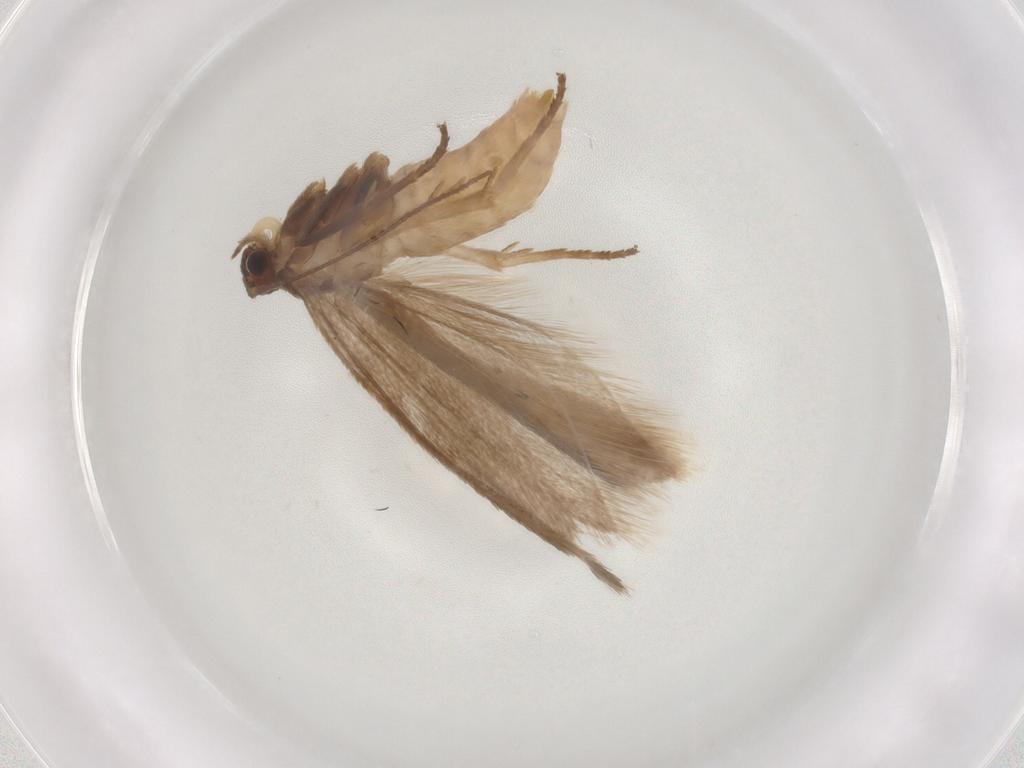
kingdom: Animalia
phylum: Arthropoda
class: Insecta
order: Lepidoptera
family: Limacodidae
